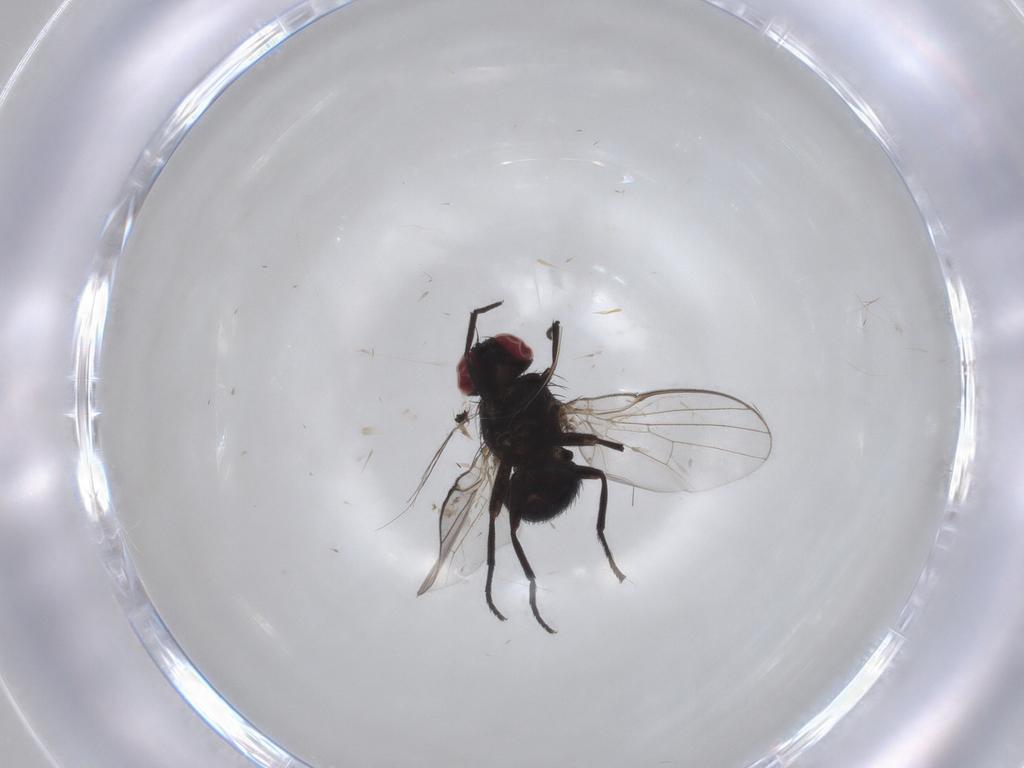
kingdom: Animalia
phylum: Arthropoda
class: Insecta
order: Diptera
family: Agromyzidae
